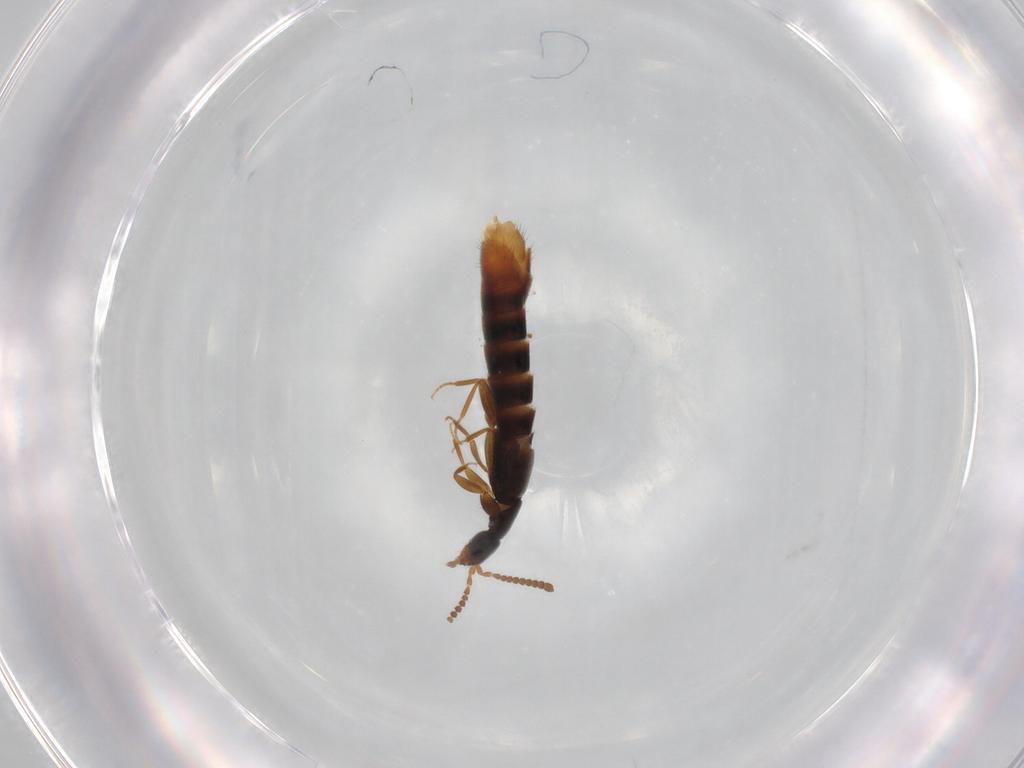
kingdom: Animalia
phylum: Arthropoda
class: Insecta
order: Coleoptera
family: Staphylinidae
